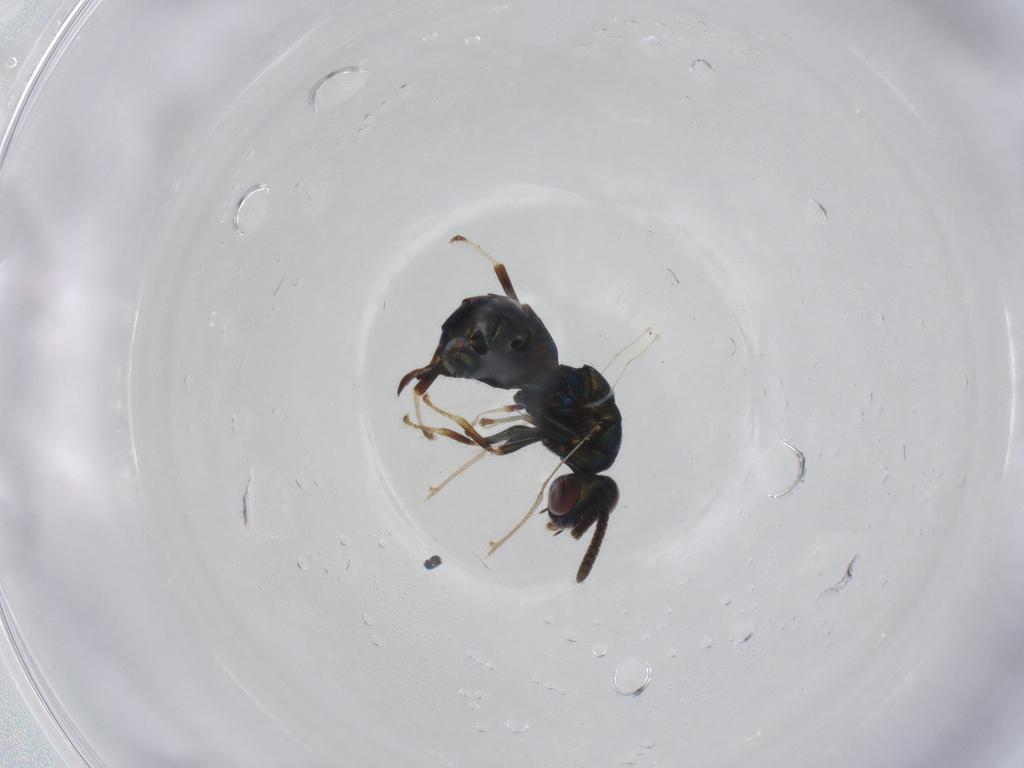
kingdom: Animalia
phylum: Arthropoda
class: Insecta
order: Hymenoptera
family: Torymidae
